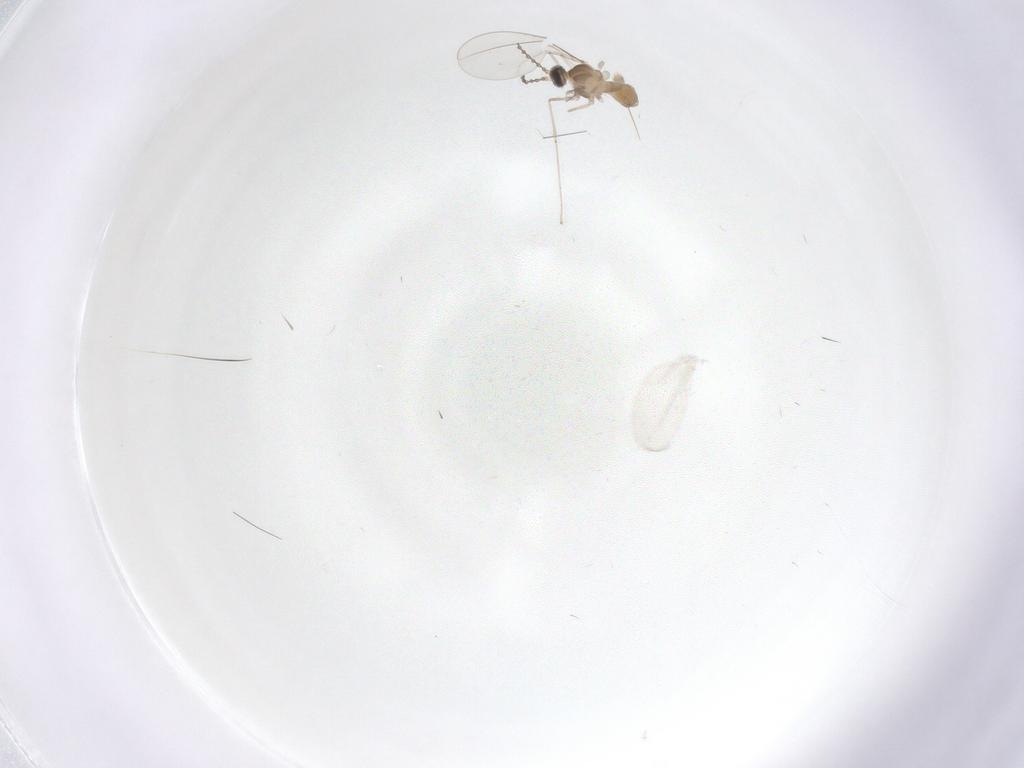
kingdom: Animalia
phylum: Arthropoda
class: Insecta
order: Diptera
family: Cecidomyiidae
